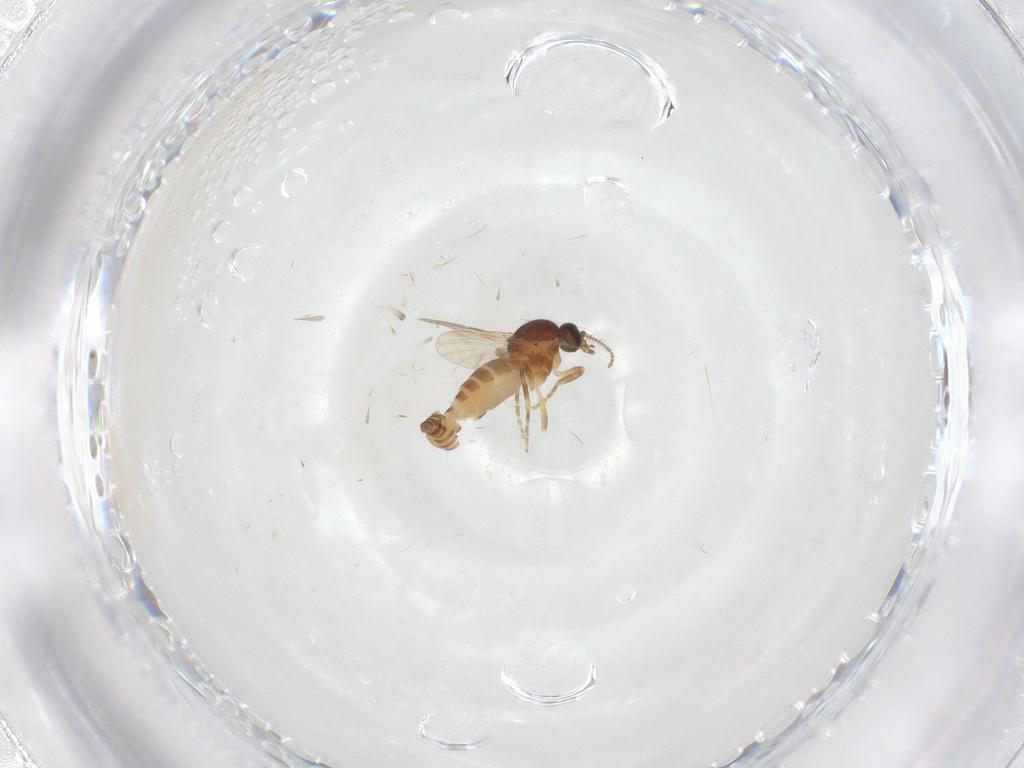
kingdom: Animalia
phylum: Arthropoda
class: Insecta
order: Diptera
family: Ceratopogonidae
